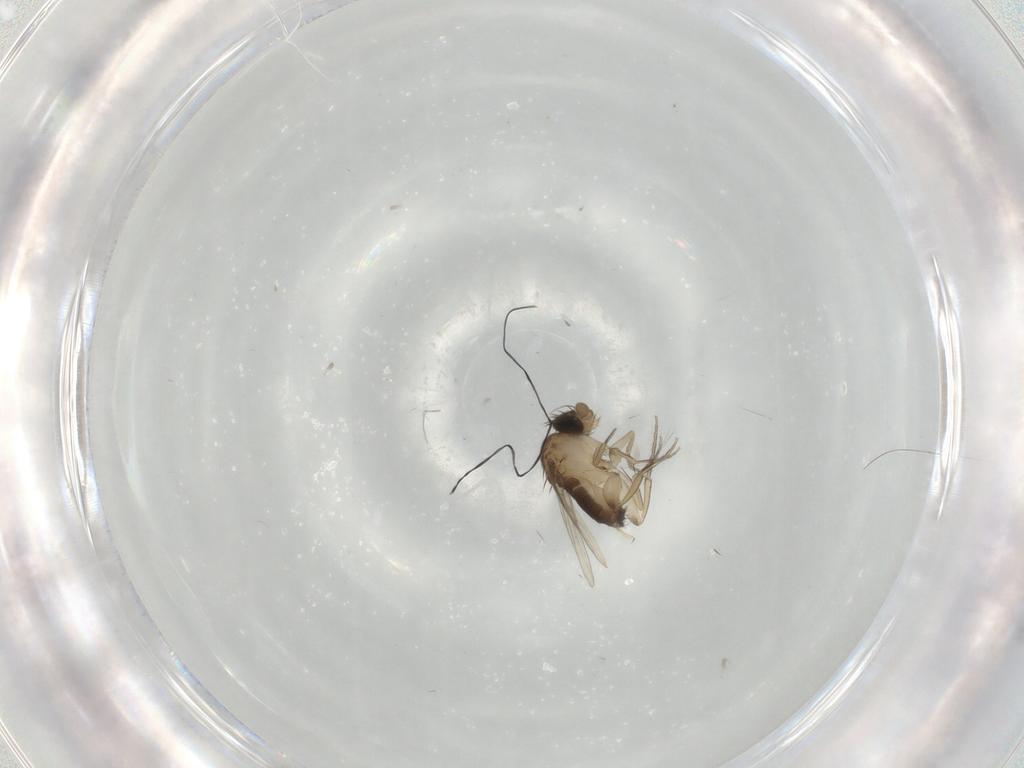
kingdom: Animalia
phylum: Arthropoda
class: Insecta
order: Diptera
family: Phoridae
